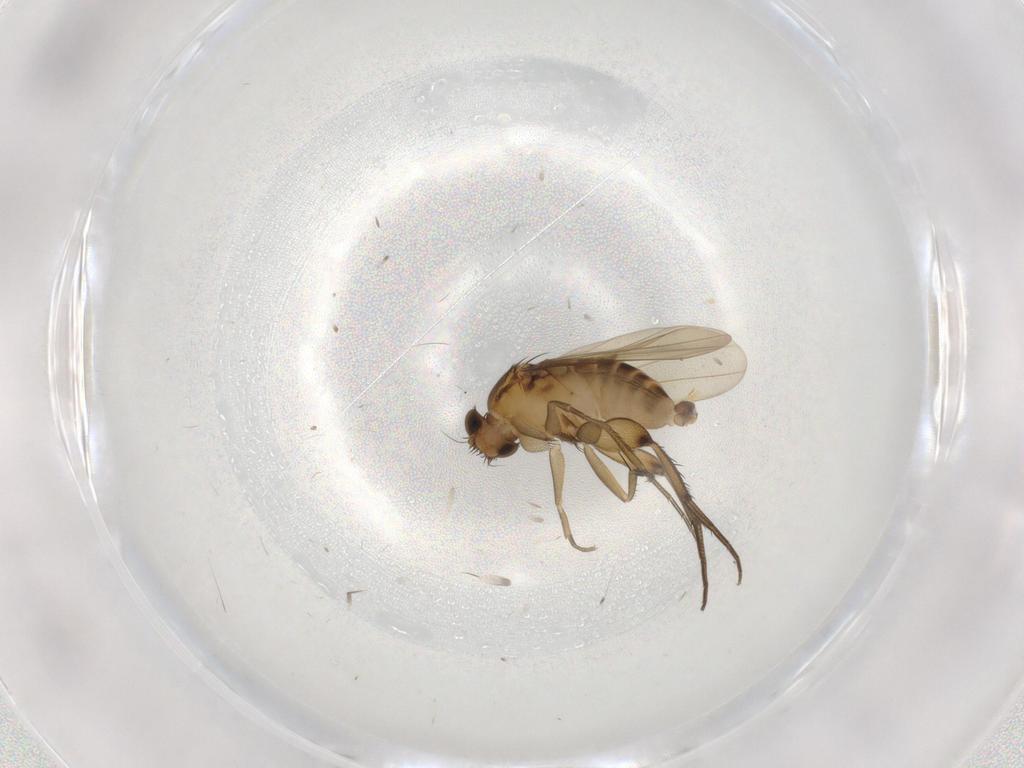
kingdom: Animalia
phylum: Arthropoda
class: Insecta
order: Diptera
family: Phoridae
